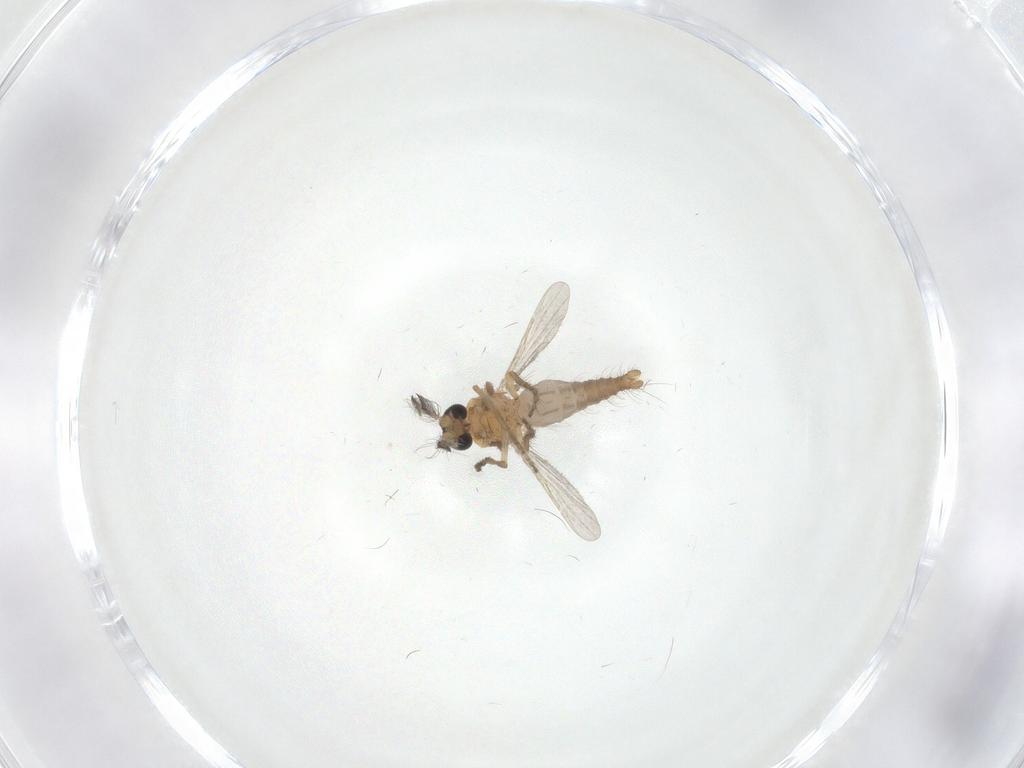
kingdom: Animalia
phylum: Arthropoda
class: Insecta
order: Diptera
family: Ceratopogonidae
